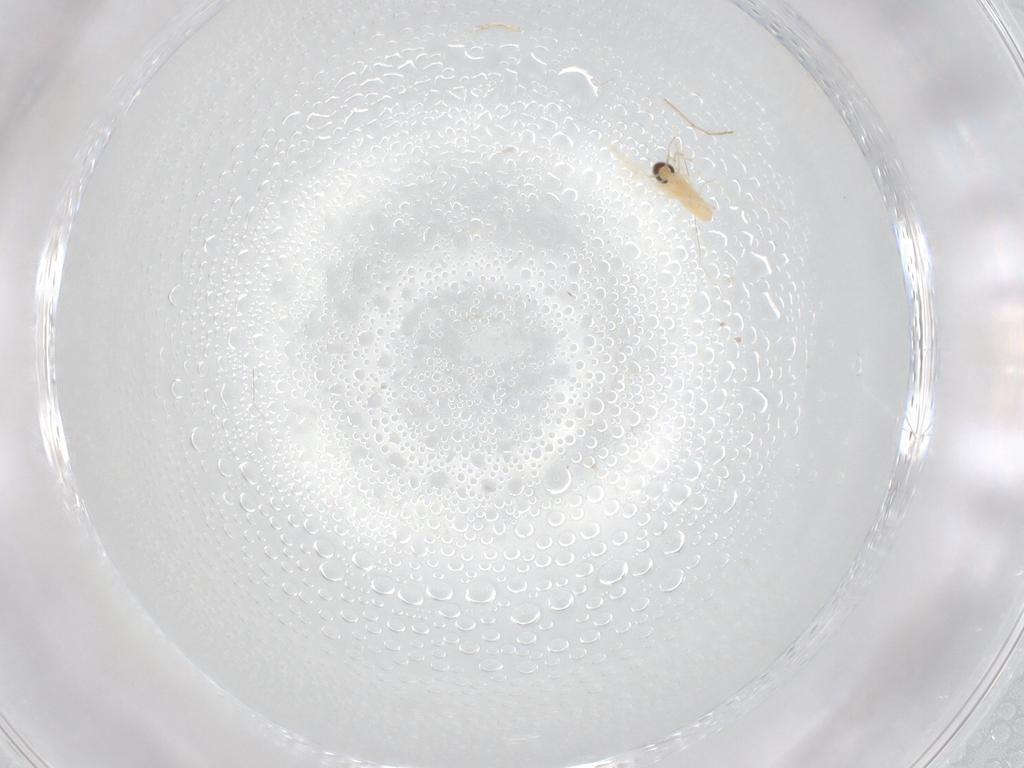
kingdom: Animalia
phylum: Arthropoda
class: Insecta
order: Diptera
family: Cecidomyiidae
